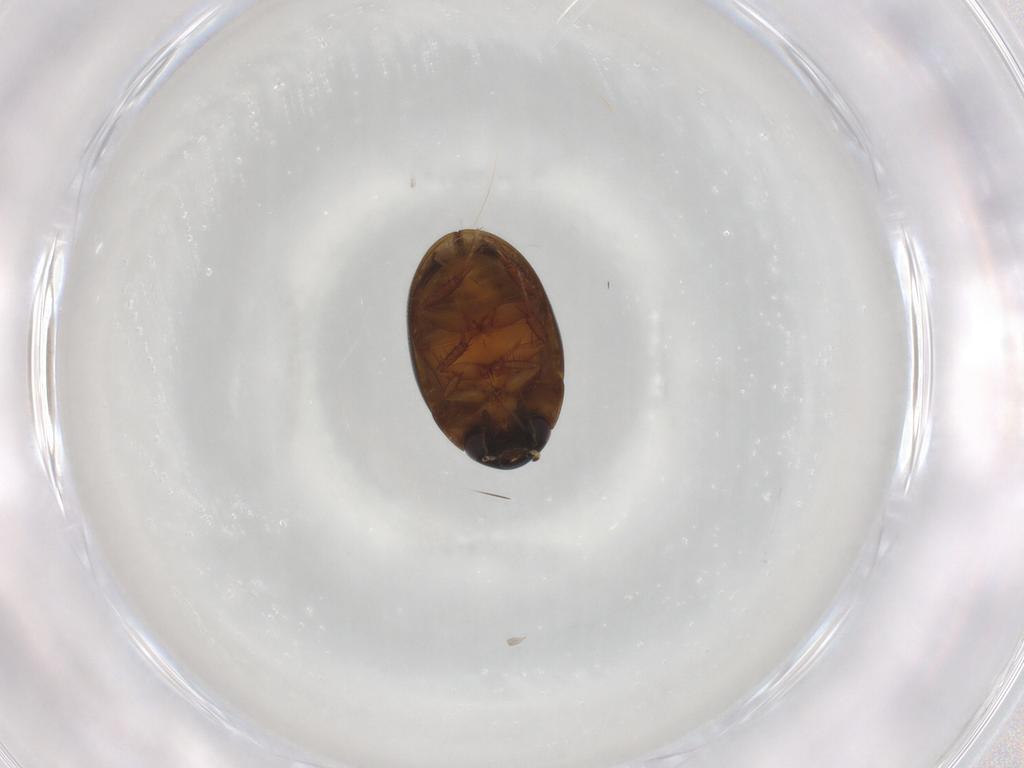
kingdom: Animalia
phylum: Arthropoda
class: Insecta
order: Coleoptera
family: Hydrophilidae
